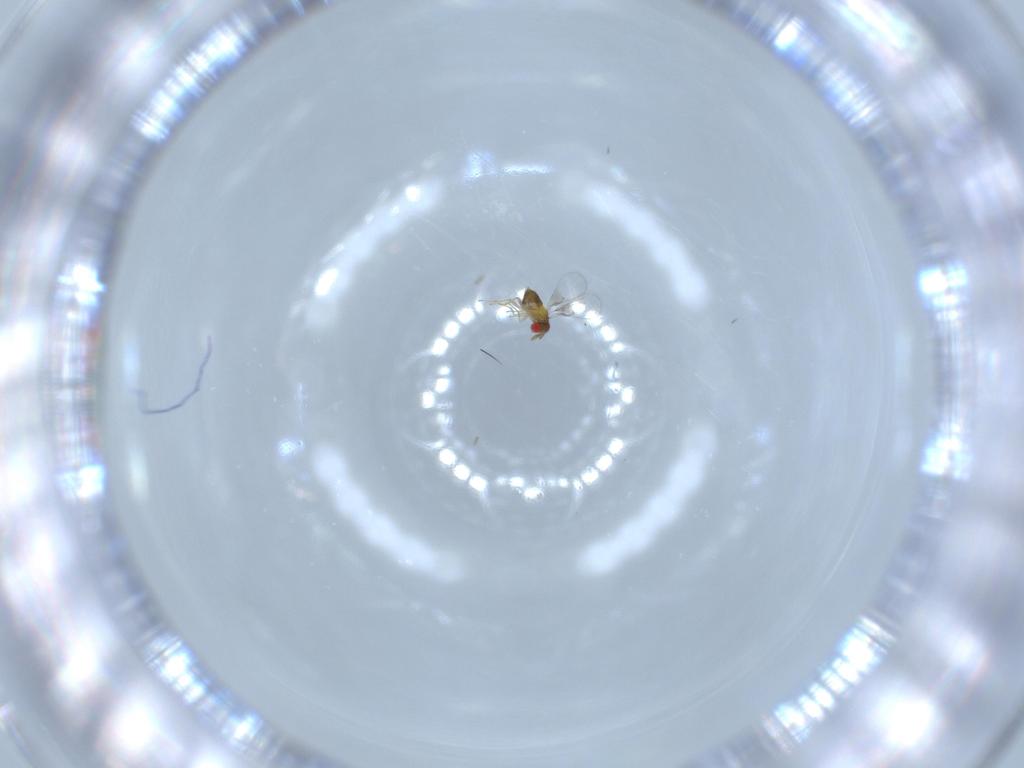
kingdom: Animalia
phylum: Arthropoda
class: Insecta
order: Hymenoptera
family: Trichogrammatidae
